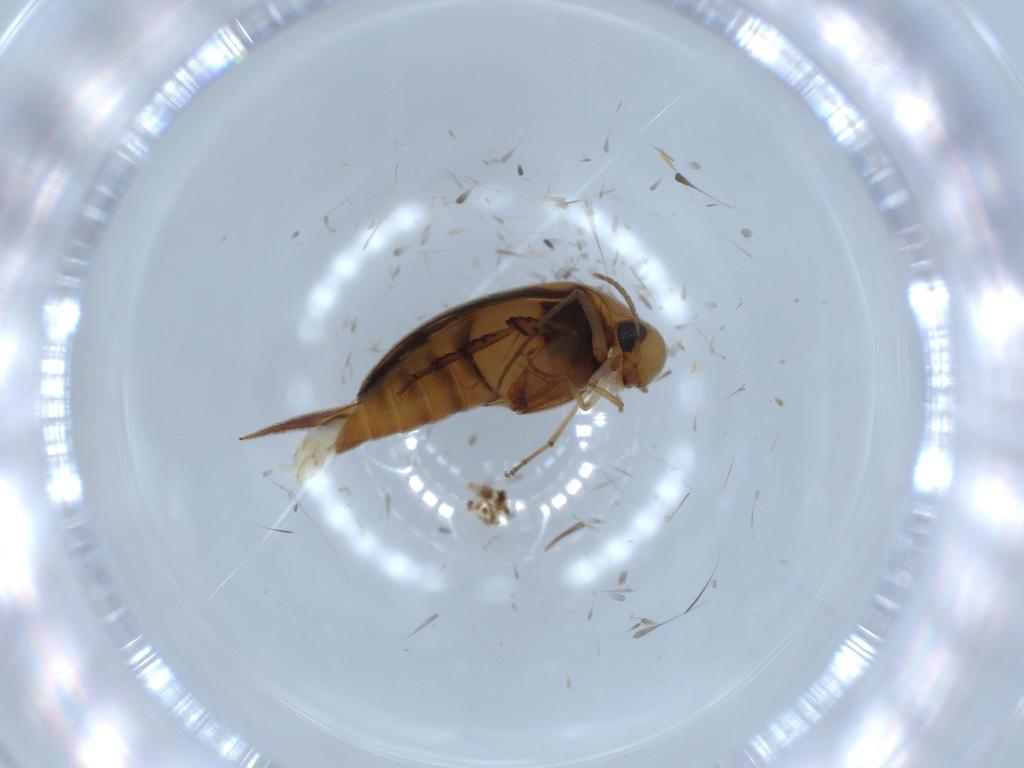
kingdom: Animalia
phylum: Arthropoda
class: Insecta
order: Coleoptera
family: Mordellidae
